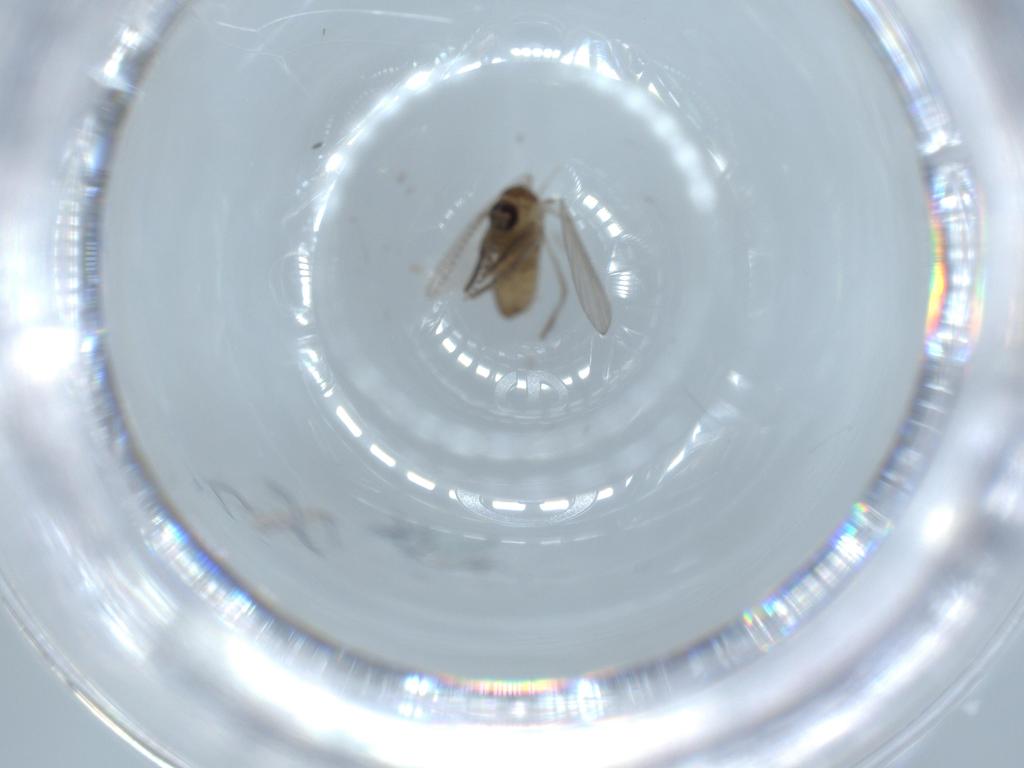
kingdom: Animalia
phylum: Arthropoda
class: Insecta
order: Diptera
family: Psychodidae
